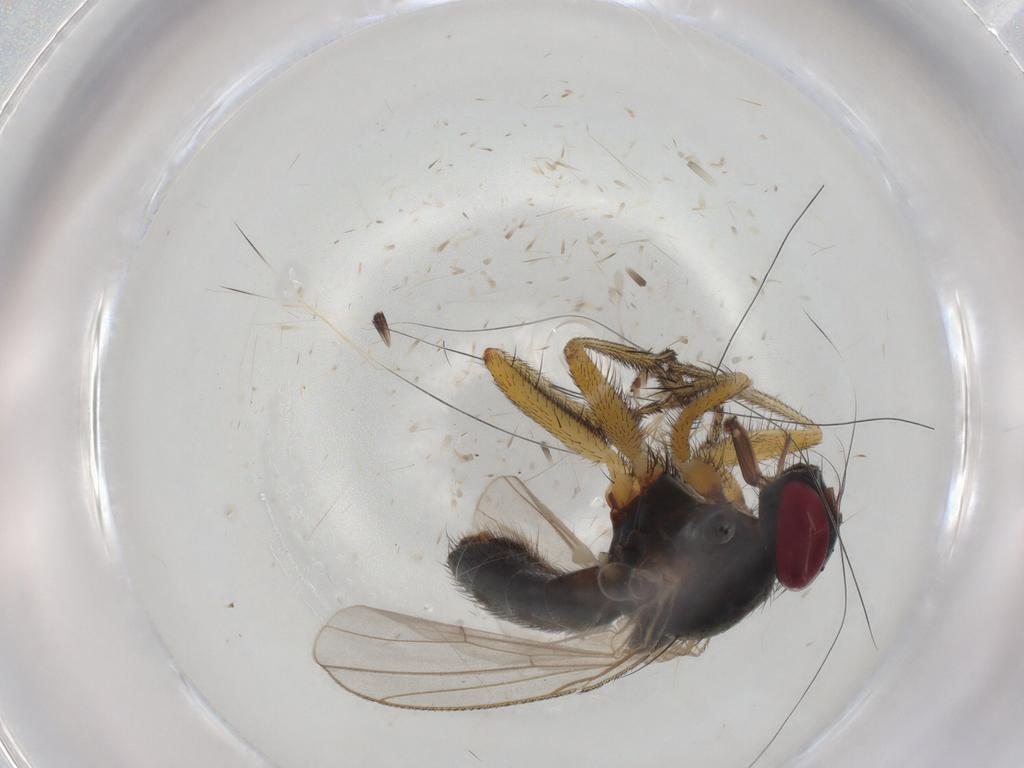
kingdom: Animalia
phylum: Arthropoda
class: Insecta
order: Diptera
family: Muscidae
